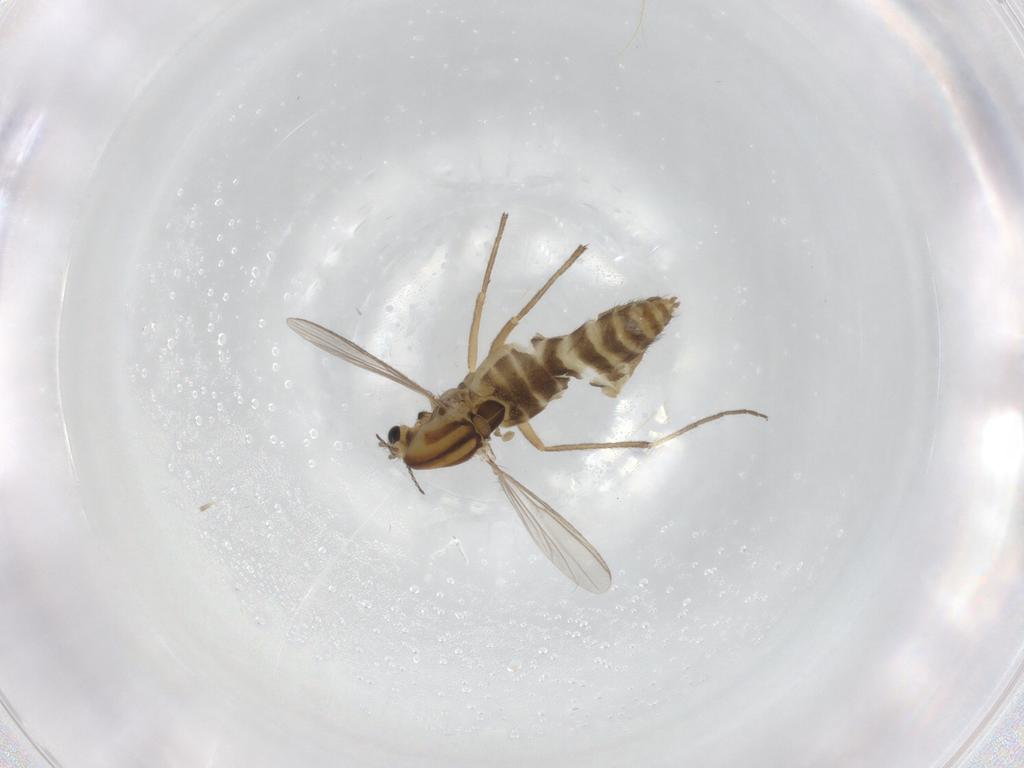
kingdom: Animalia
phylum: Arthropoda
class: Insecta
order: Diptera
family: Chironomidae
